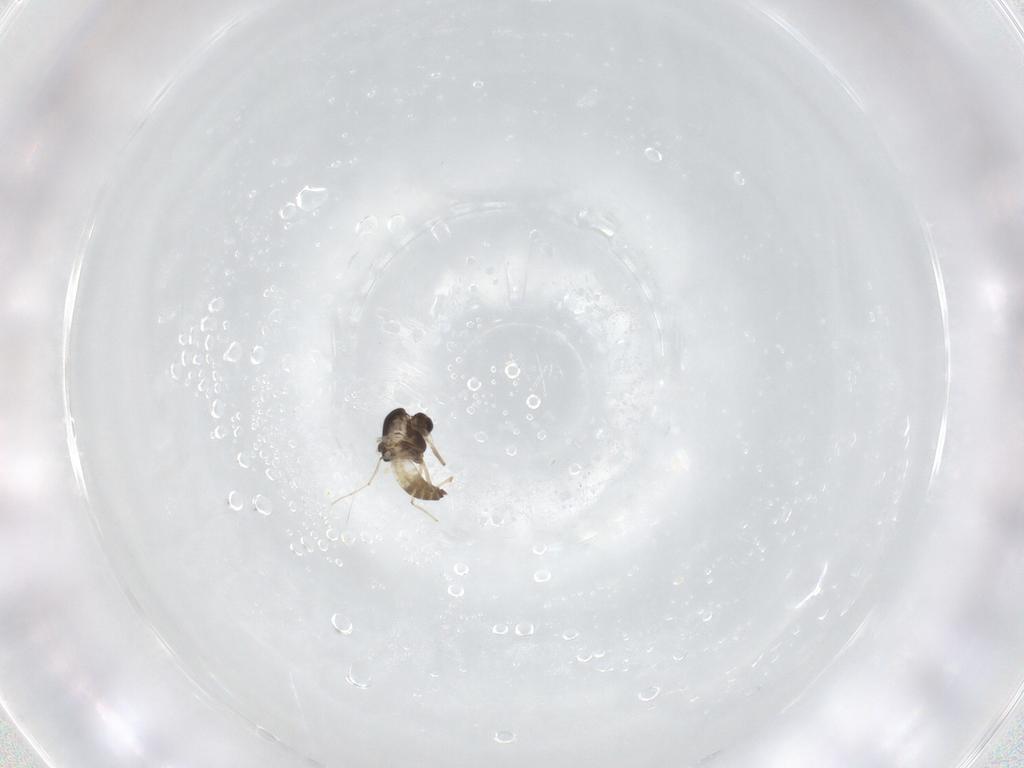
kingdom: Animalia
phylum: Arthropoda
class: Insecta
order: Diptera
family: Chironomidae
